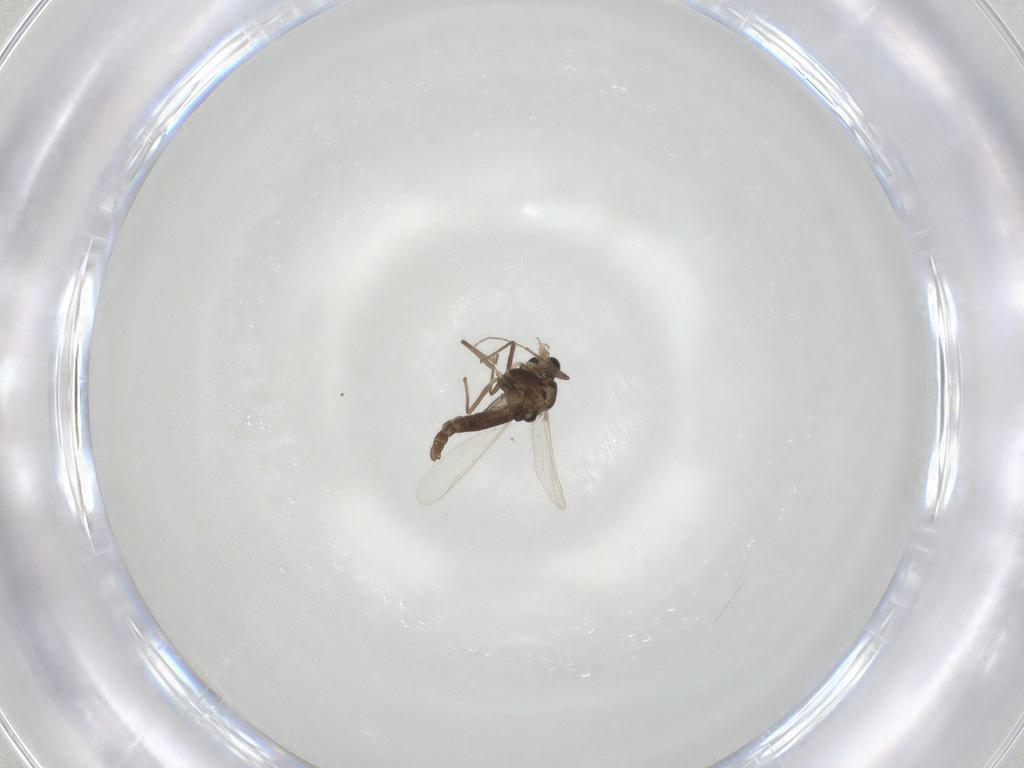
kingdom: Animalia
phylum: Arthropoda
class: Insecta
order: Diptera
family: Chironomidae
